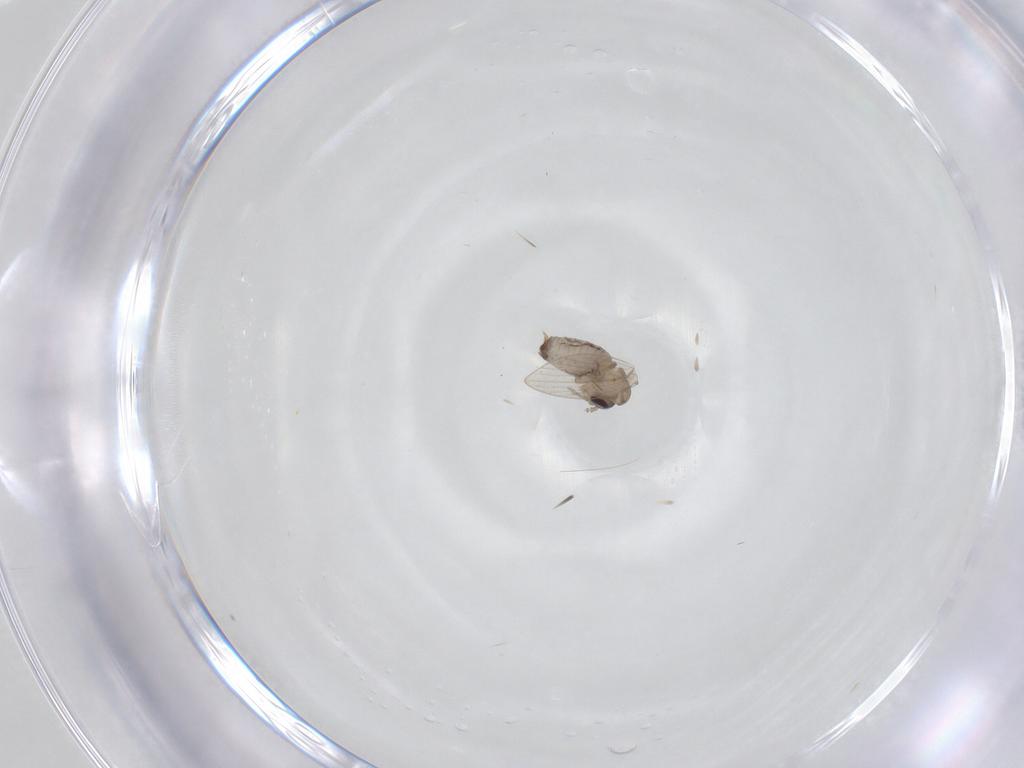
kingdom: Animalia
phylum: Arthropoda
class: Insecta
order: Diptera
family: Psychodidae
